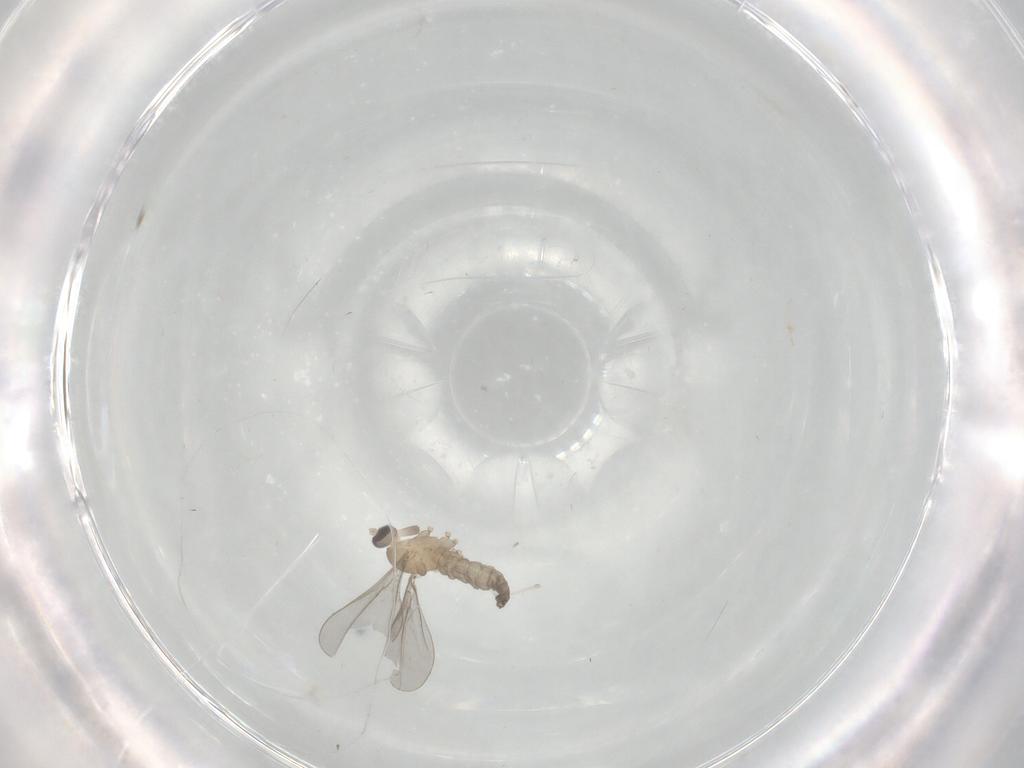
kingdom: Animalia
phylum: Arthropoda
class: Insecta
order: Diptera
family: Cecidomyiidae
